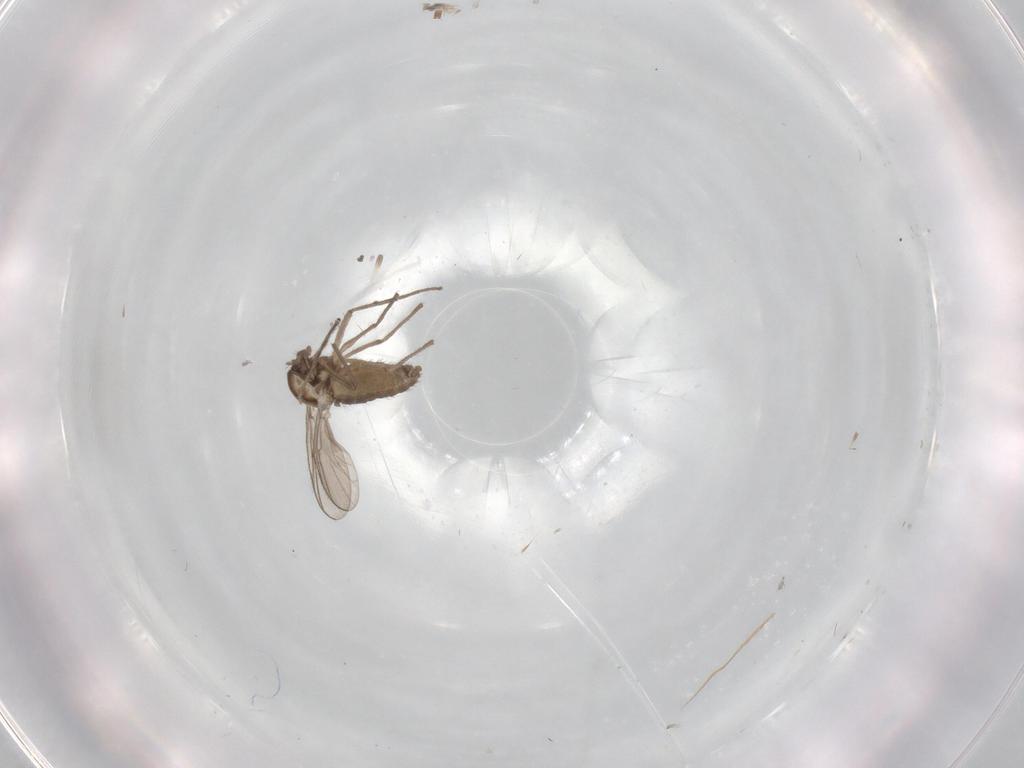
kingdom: Animalia
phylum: Arthropoda
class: Insecta
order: Diptera
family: Chironomidae
